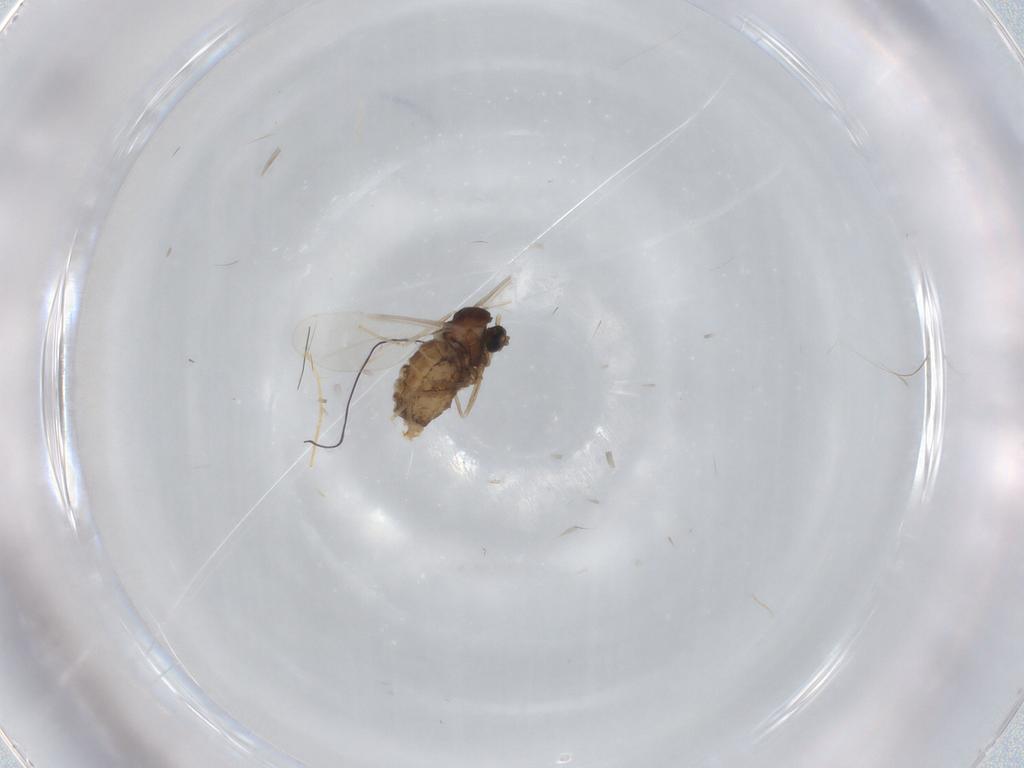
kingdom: Animalia
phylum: Arthropoda
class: Insecta
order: Diptera
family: Cecidomyiidae
